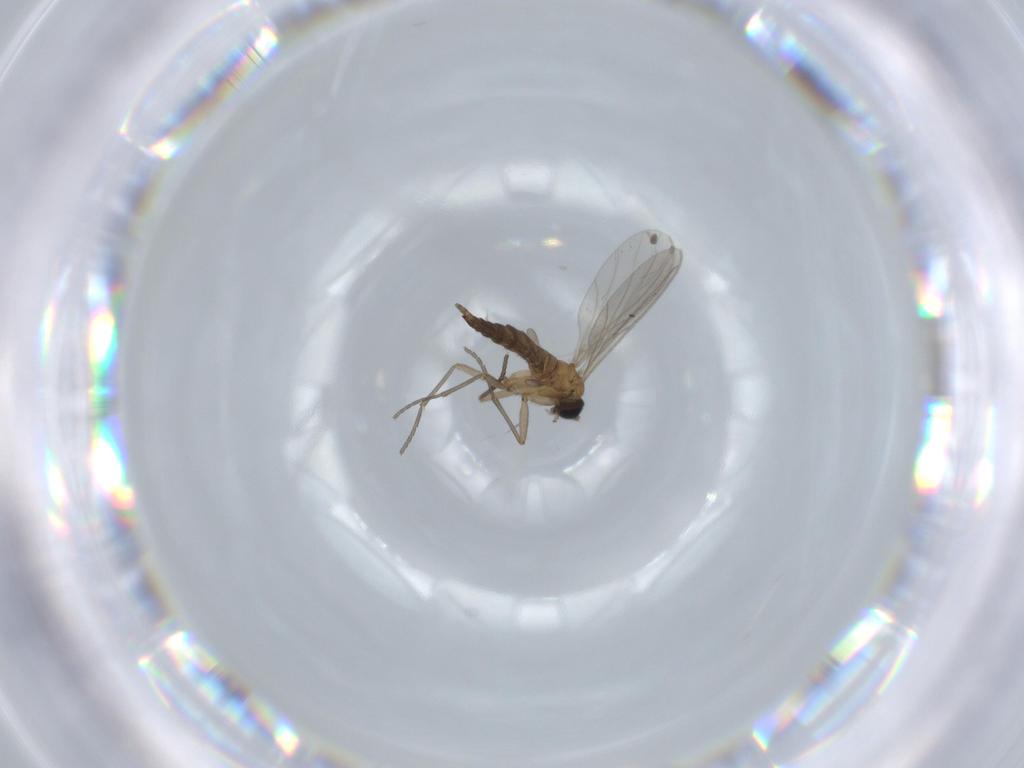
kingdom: Animalia
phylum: Arthropoda
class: Insecta
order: Diptera
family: Sciaridae
